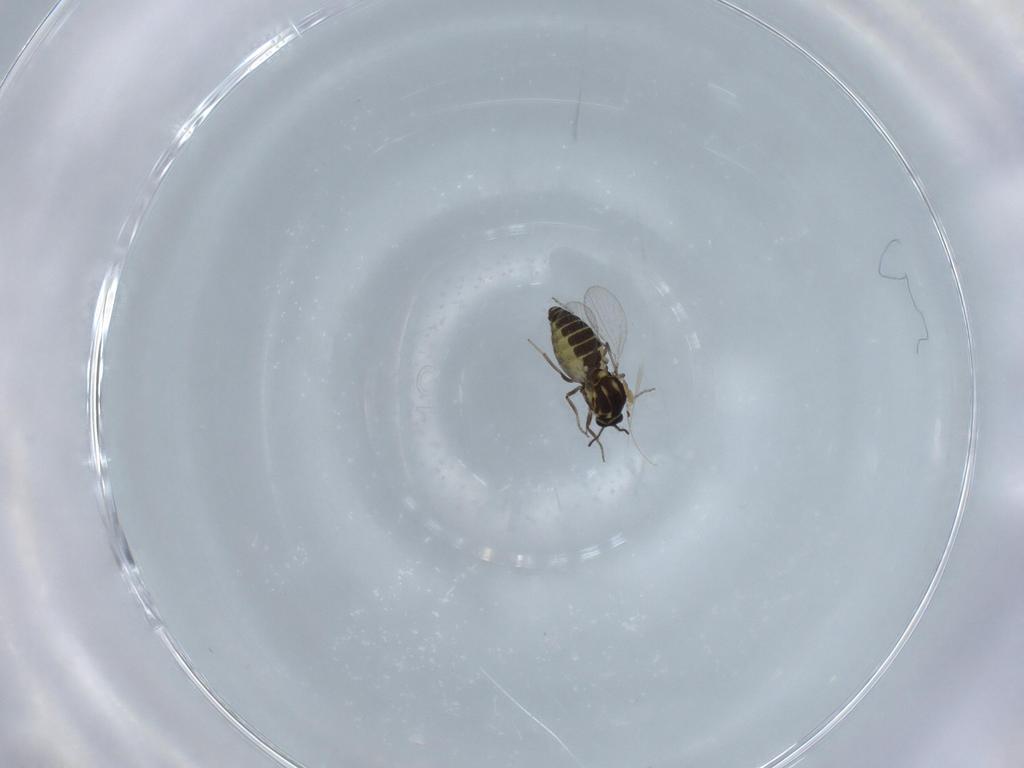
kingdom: Animalia
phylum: Arthropoda
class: Insecta
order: Diptera
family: Ceratopogonidae
